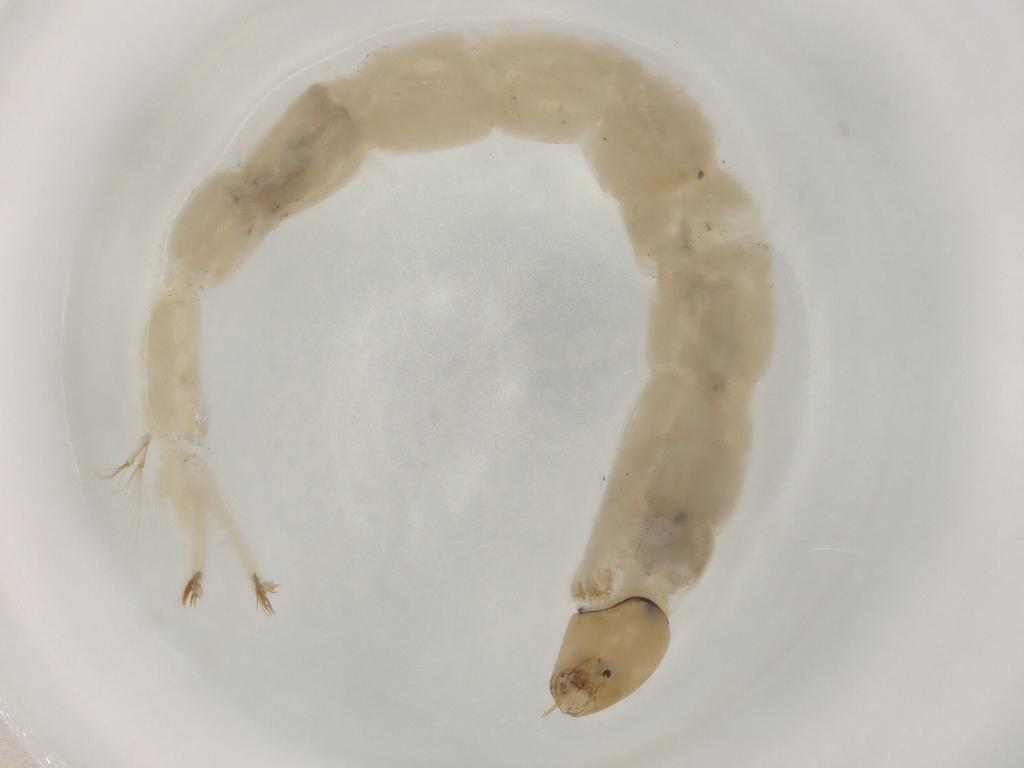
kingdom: Animalia
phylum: Arthropoda
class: Insecta
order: Diptera
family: Chironomidae
